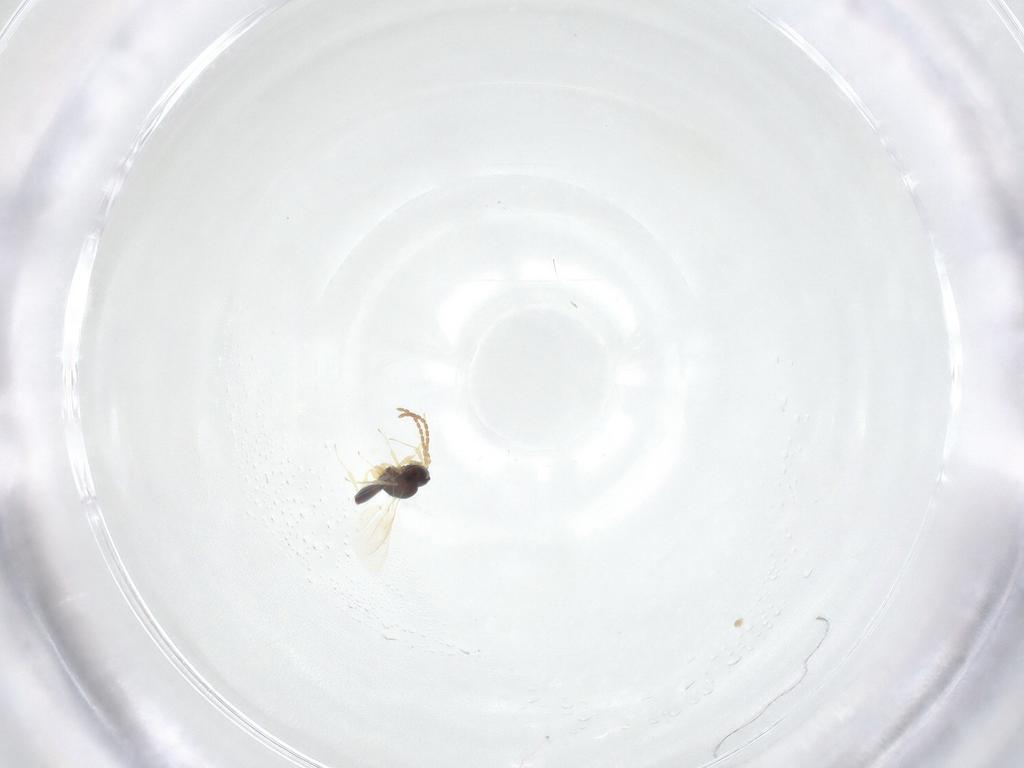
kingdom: Animalia
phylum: Arthropoda
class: Insecta
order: Hymenoptera
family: Scelionidae
